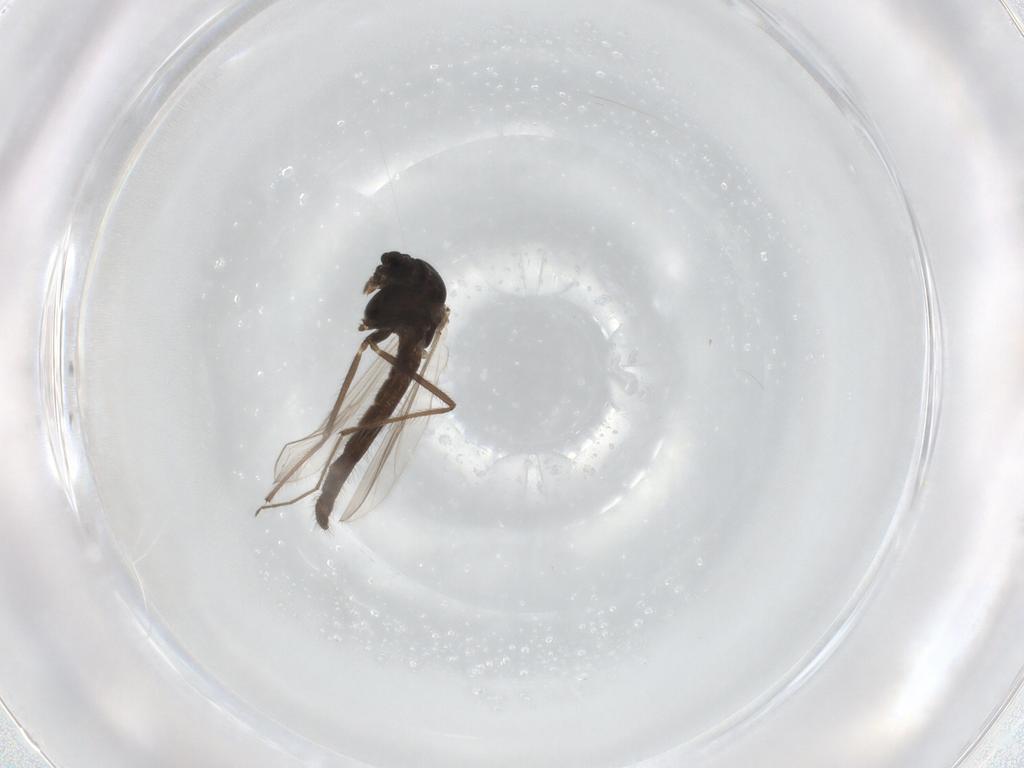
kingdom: Animalia
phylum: Arthropoda
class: Insecta
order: Diptera
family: Chironomidae
